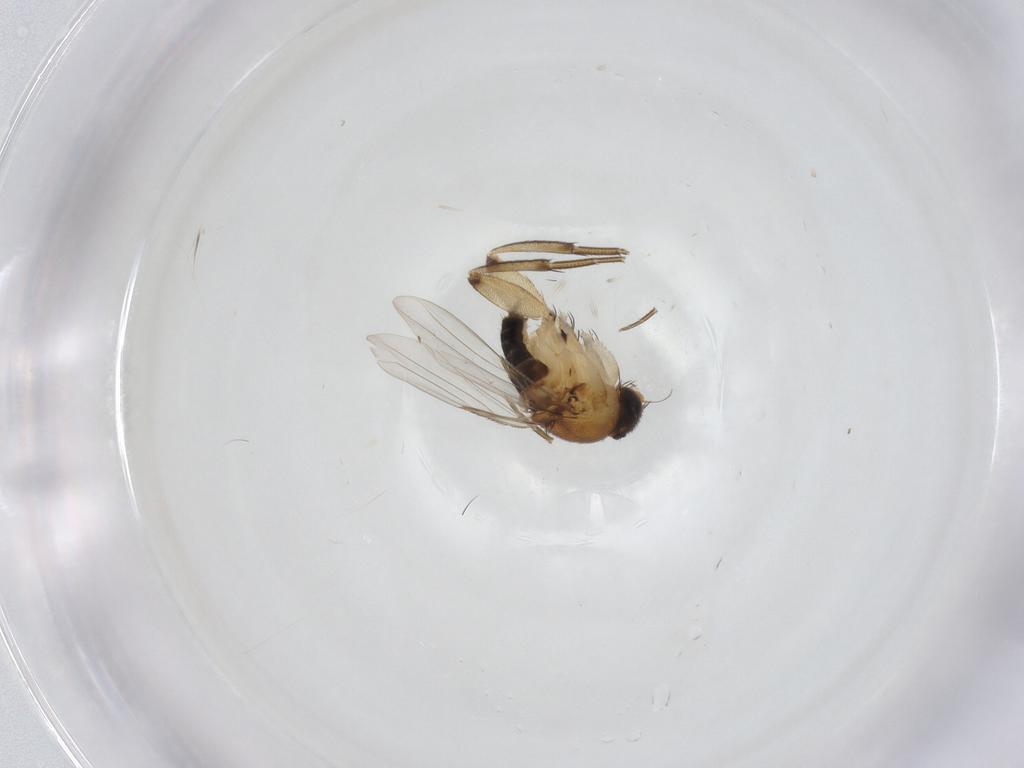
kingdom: Animalia
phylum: Arthropoda
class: Insecta
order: Diptera
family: Phoridae
